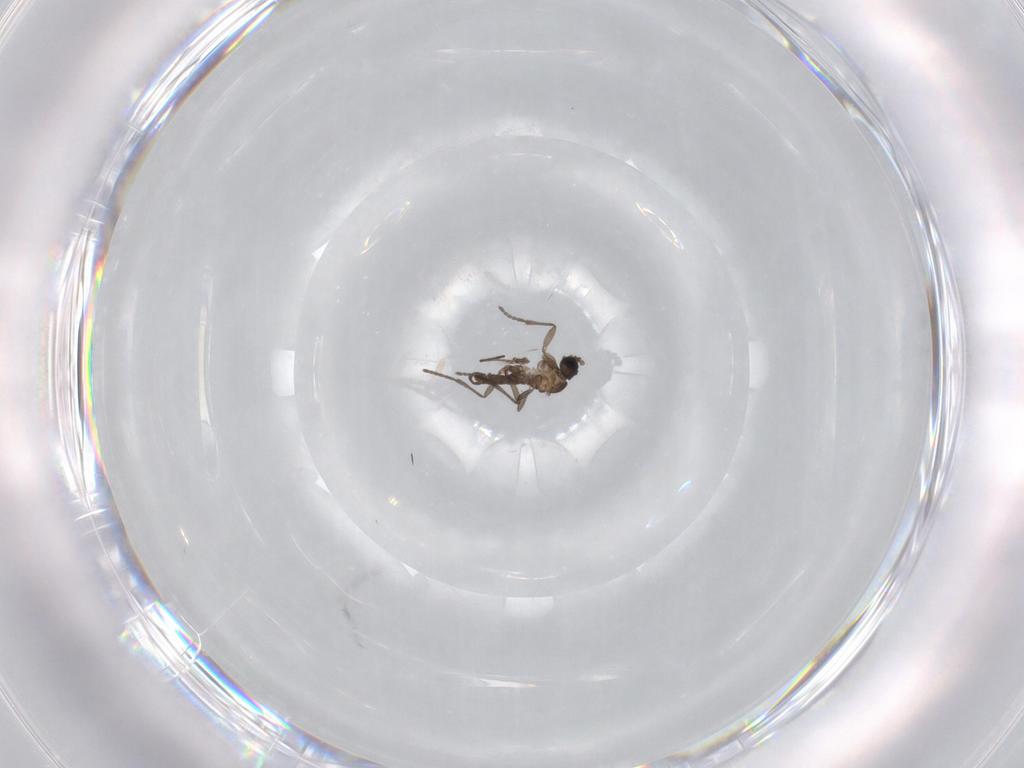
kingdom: Animalia
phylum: Arthropoda
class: Insecta
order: Diptera
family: Sciaridae
